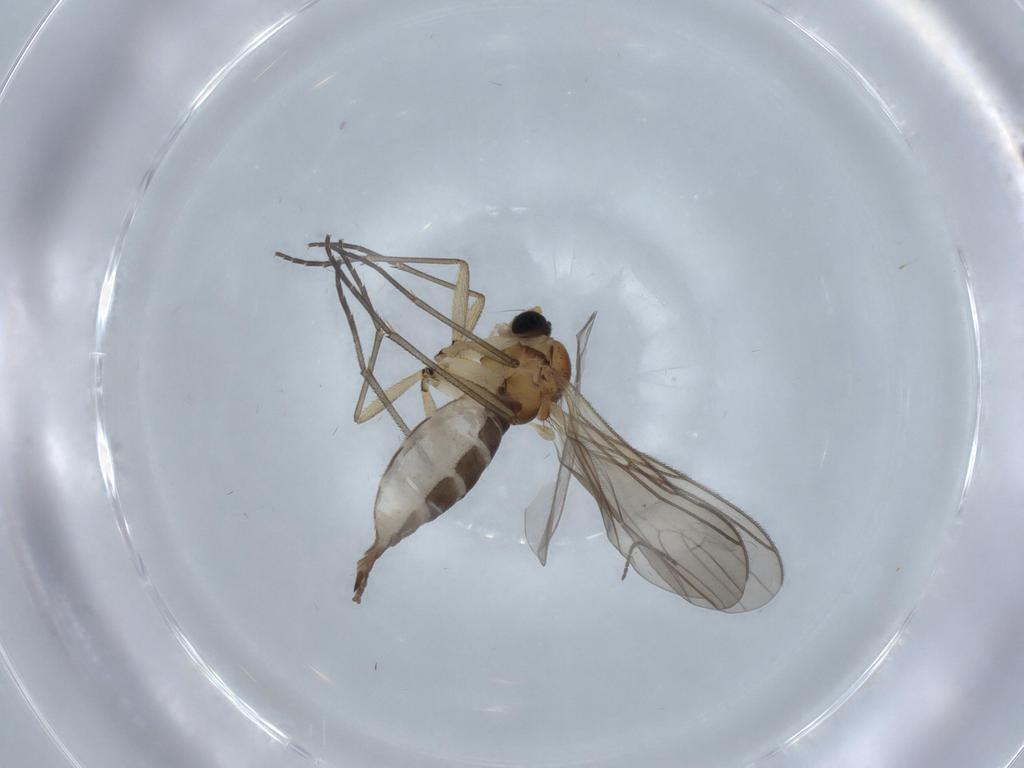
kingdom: Animalia
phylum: Arthropoda
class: Insecta
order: Diptera
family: Sciaridae
